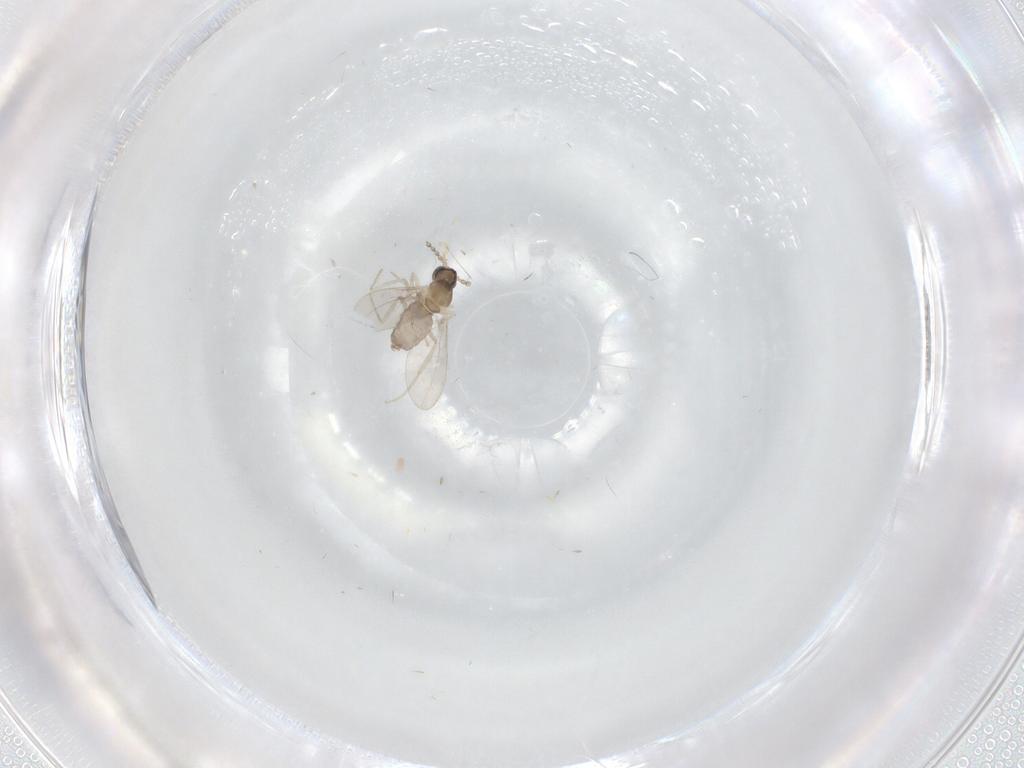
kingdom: Animalia
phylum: Arthropoda
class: Insecta
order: Diptera
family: Cecidomyiidae
